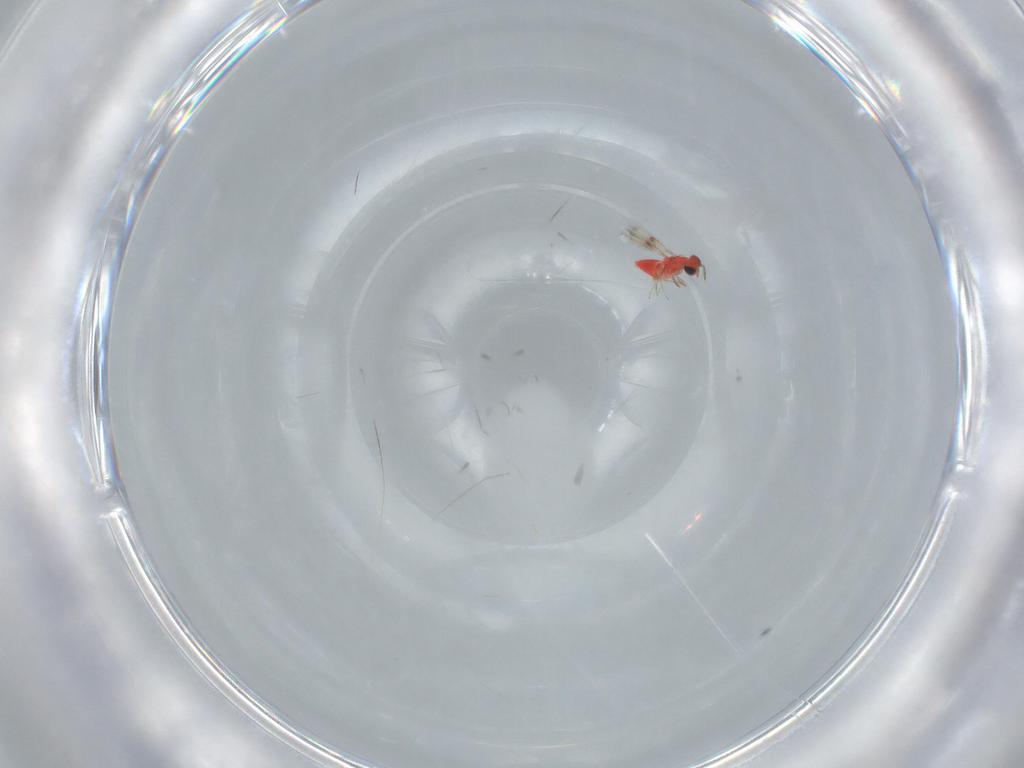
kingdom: Animalia
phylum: Arthropoda
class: Insecta
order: Hymenoptera
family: Trichogrammatidae
